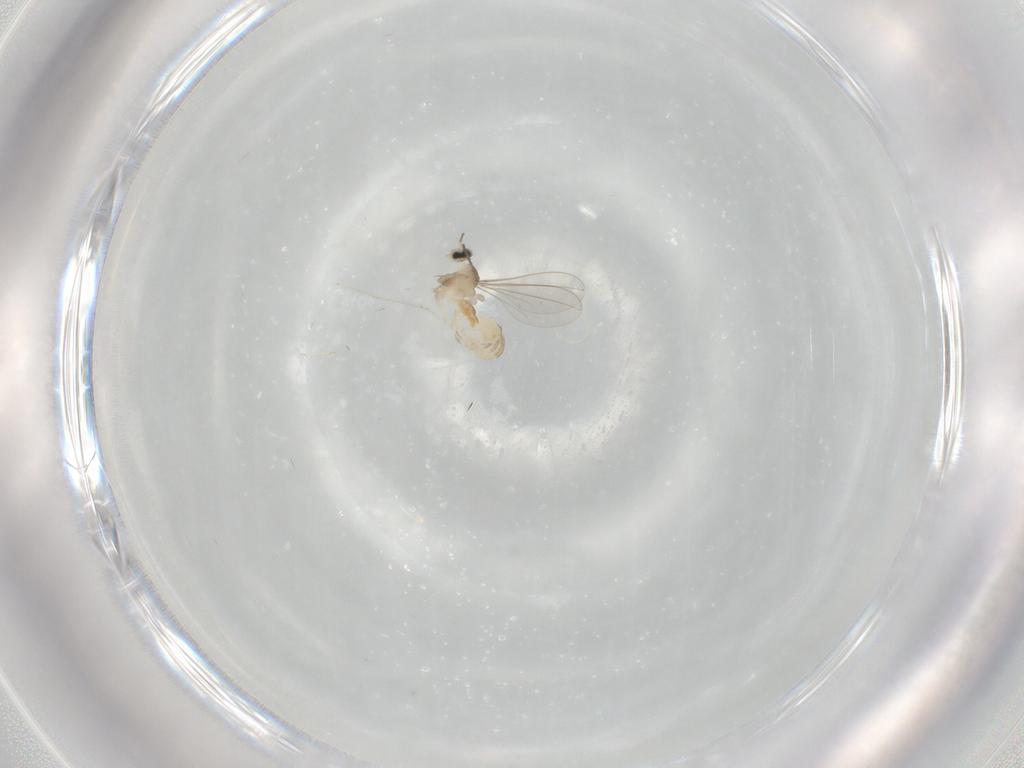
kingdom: Animalia
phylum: Arthropoda
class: Insecta
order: Diptera
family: Cecidomyiidae
